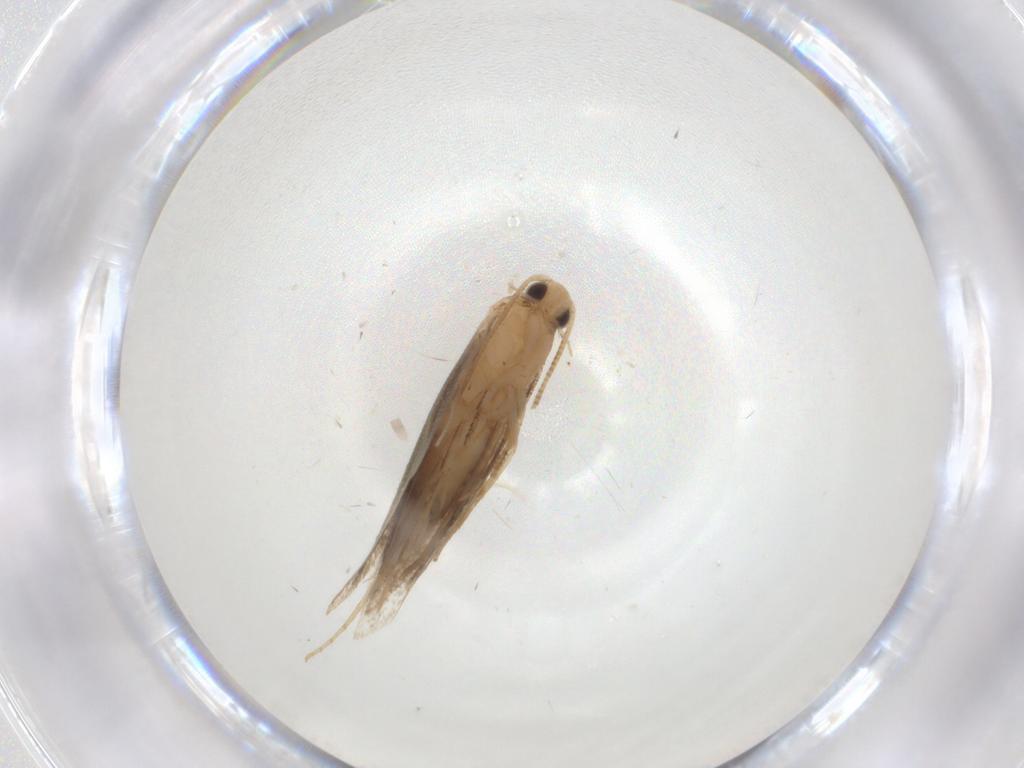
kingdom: Animalia
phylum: Arthropoda
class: Insecta
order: Lepidoptera
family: Tineidae
